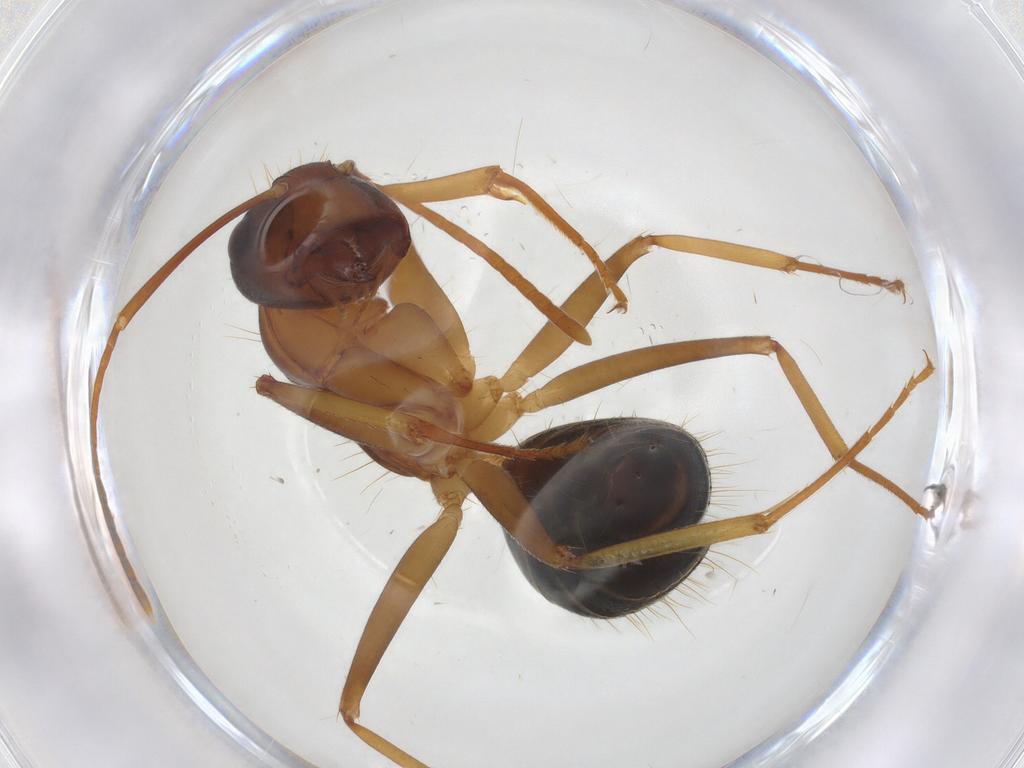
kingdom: Animalia
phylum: Arthropoda
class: Insecta
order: Hymenoptera
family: Formicidae
